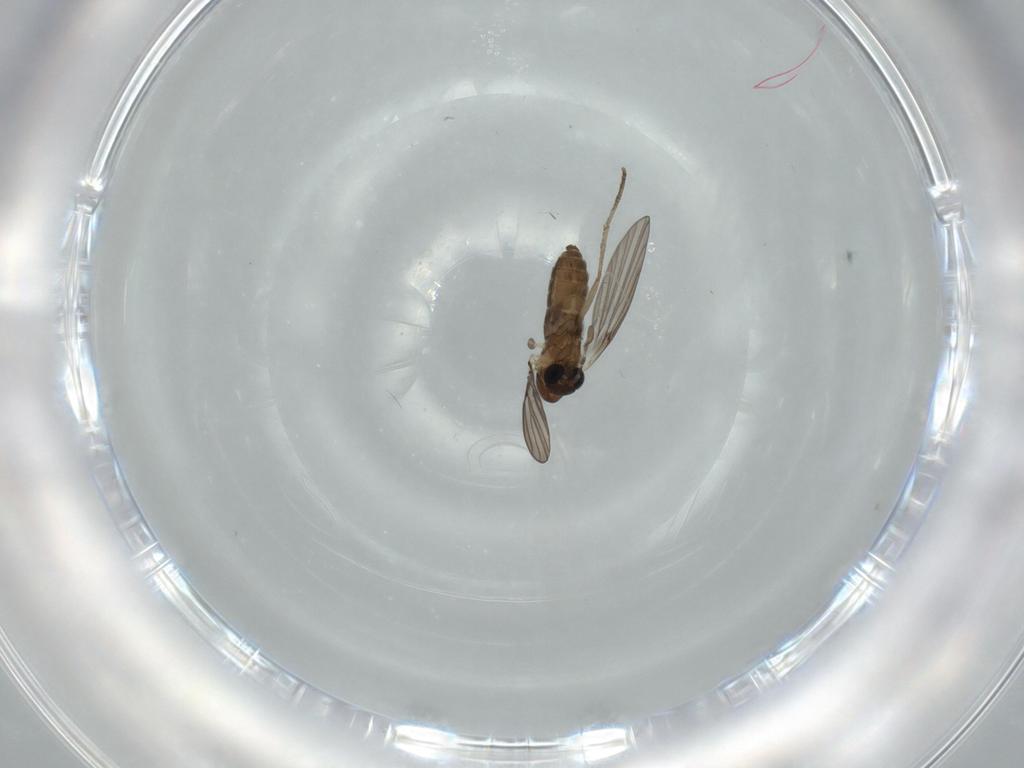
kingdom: Animalia
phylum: Arthropoda
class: Insecta
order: Diptera
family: Psychodidae
